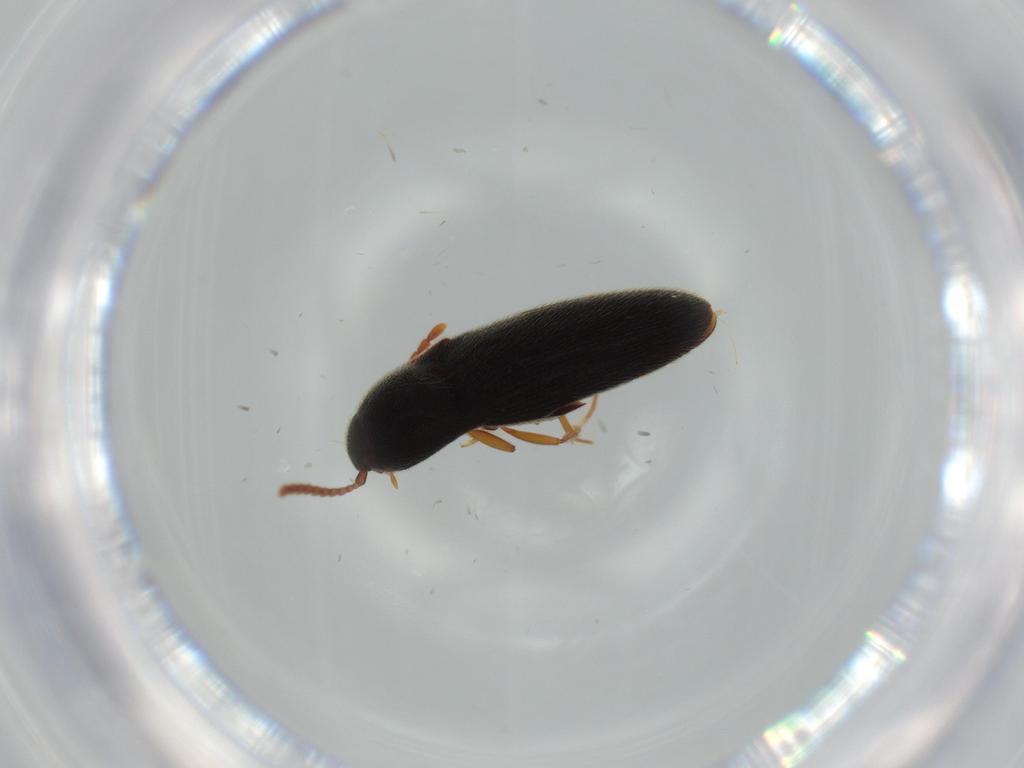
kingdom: Animalia
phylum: Arthropoda
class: Insecta
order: Coleoptera
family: Elateridae
